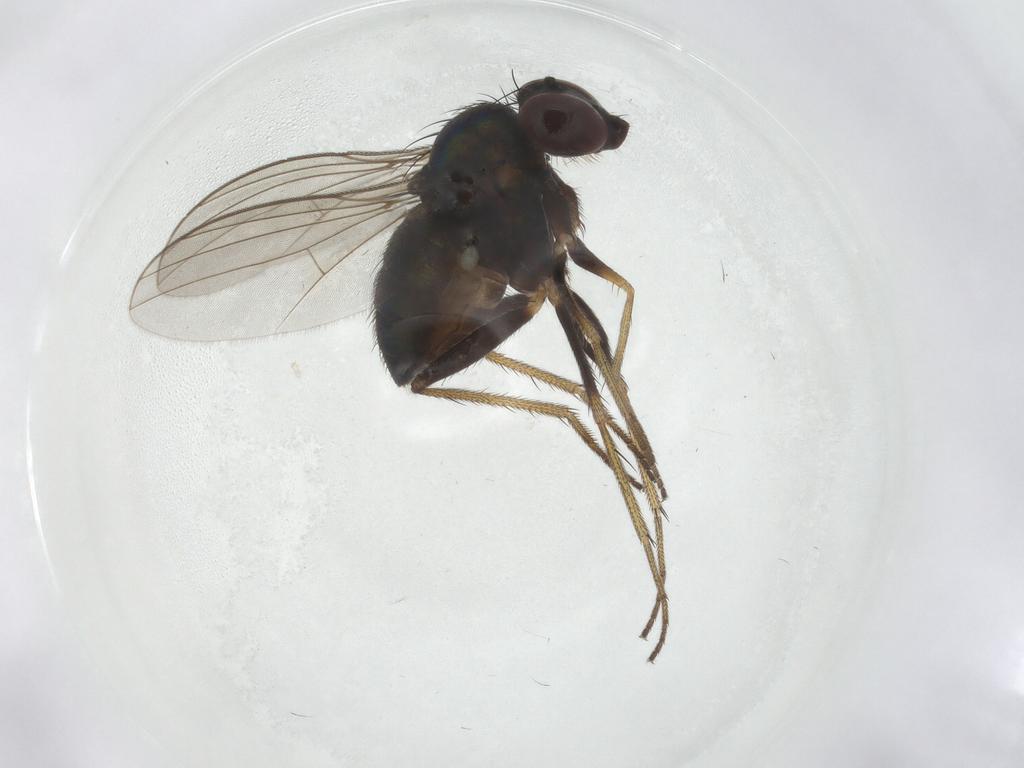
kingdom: Animalia
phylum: Arthropoda
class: Insecta
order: Diptera
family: Cecidomyiidae
